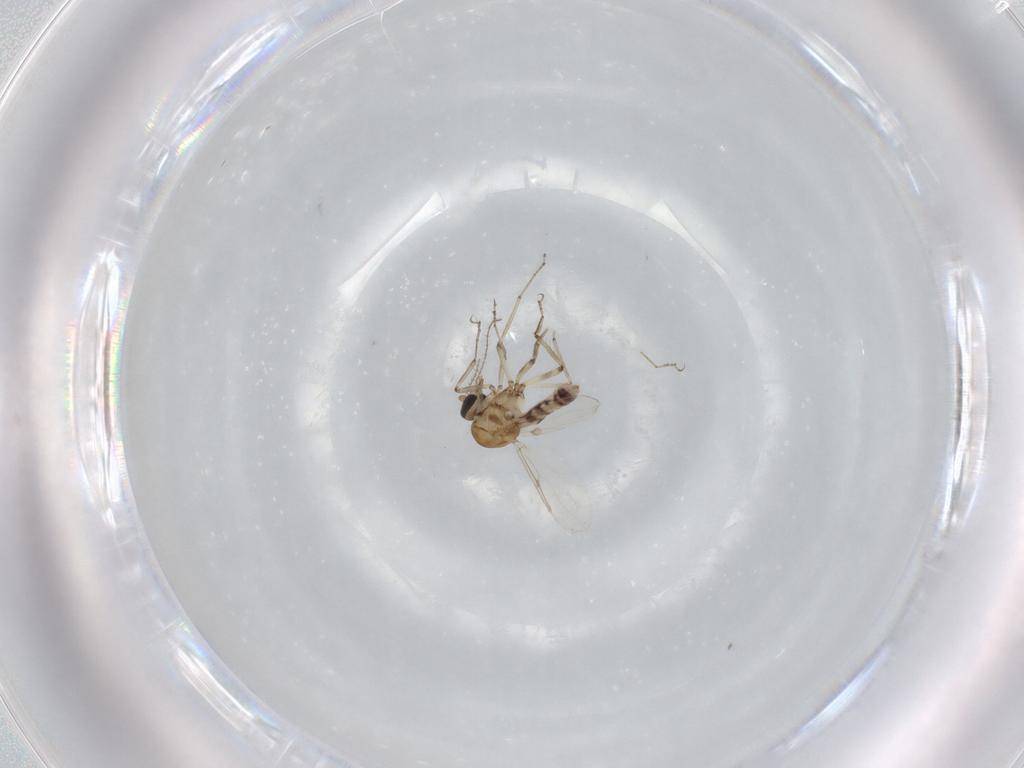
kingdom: Animalia
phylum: Arthropoda
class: Insecta
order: Diptera
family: Ceratopogonidae
